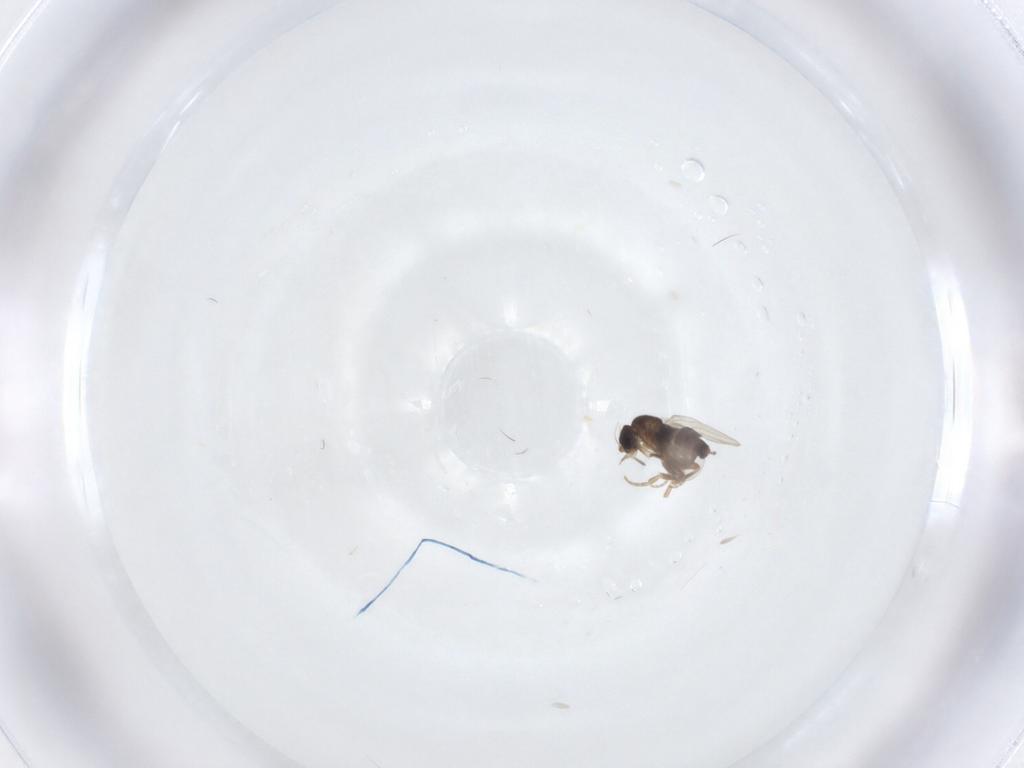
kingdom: Animalia
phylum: Arthropoda
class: Insecta
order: Diptera
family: Phoridae
